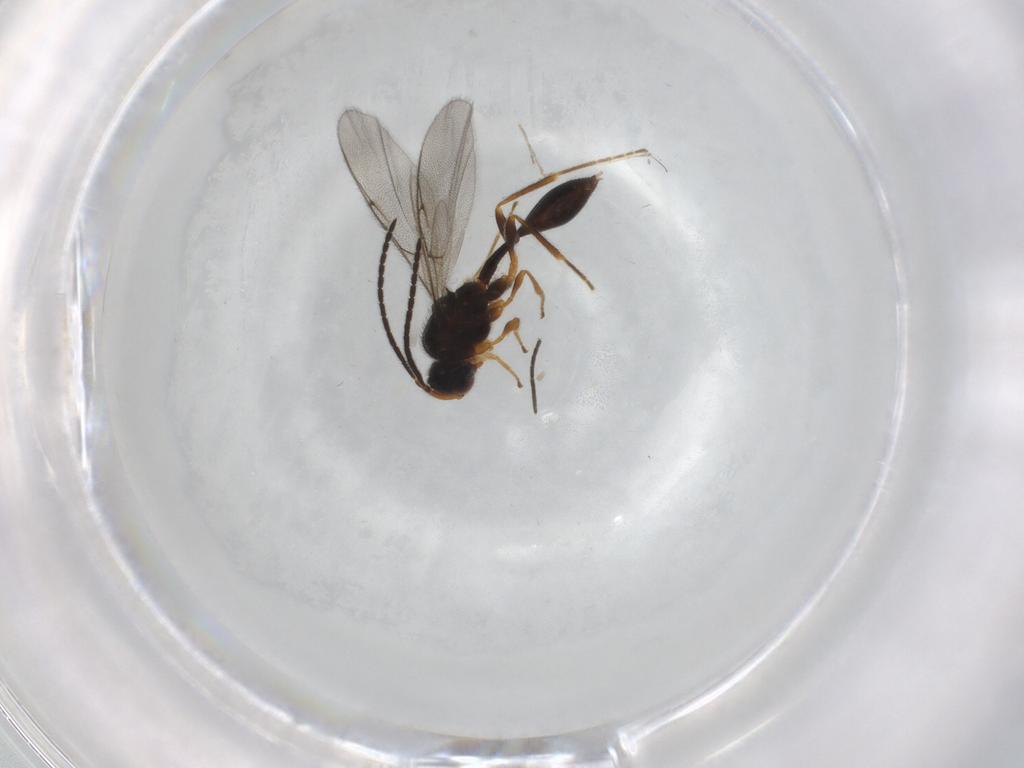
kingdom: Animalia
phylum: Arthropoda
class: Insecta
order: Hymenoptera
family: Diapriidae
